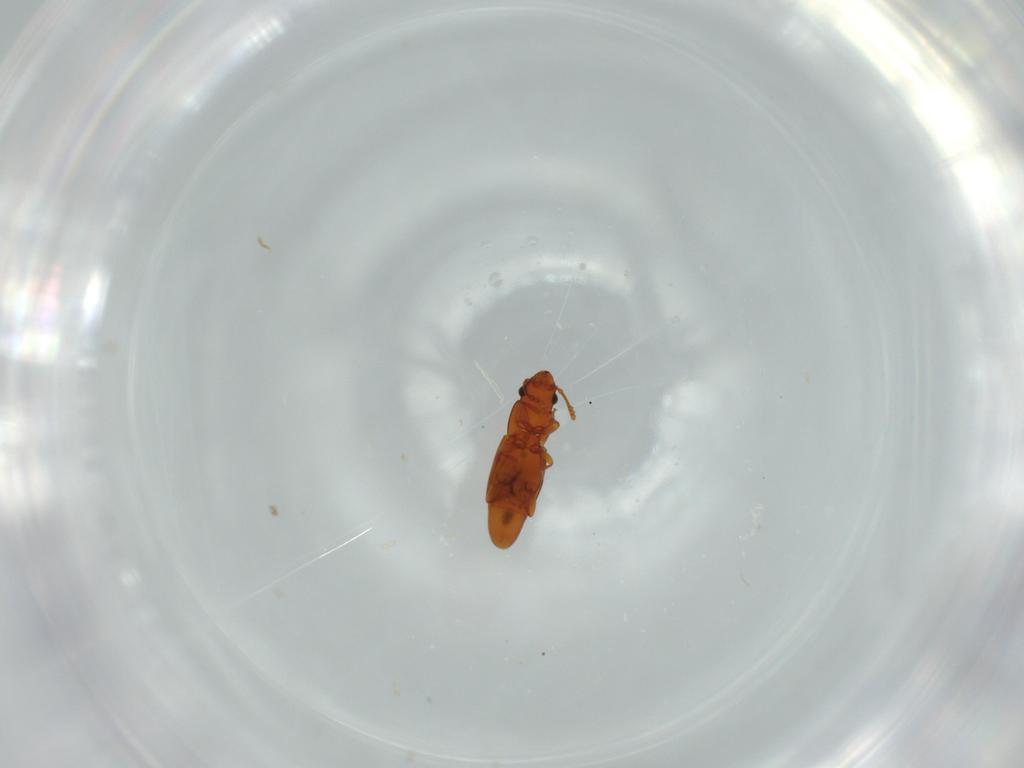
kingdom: Animalia
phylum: Arthropoda
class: Insecta
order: Coleoptera
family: Smicripidae
